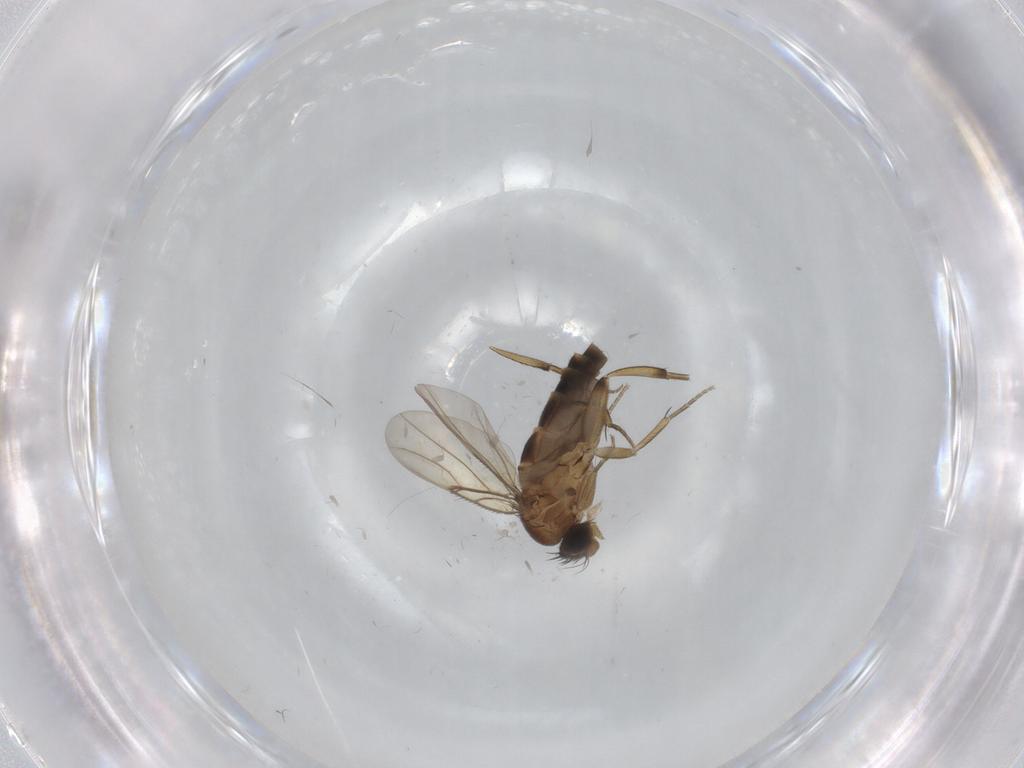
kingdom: Animalia
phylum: Arthropoda
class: Insecta
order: Diptera
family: Phoridae
